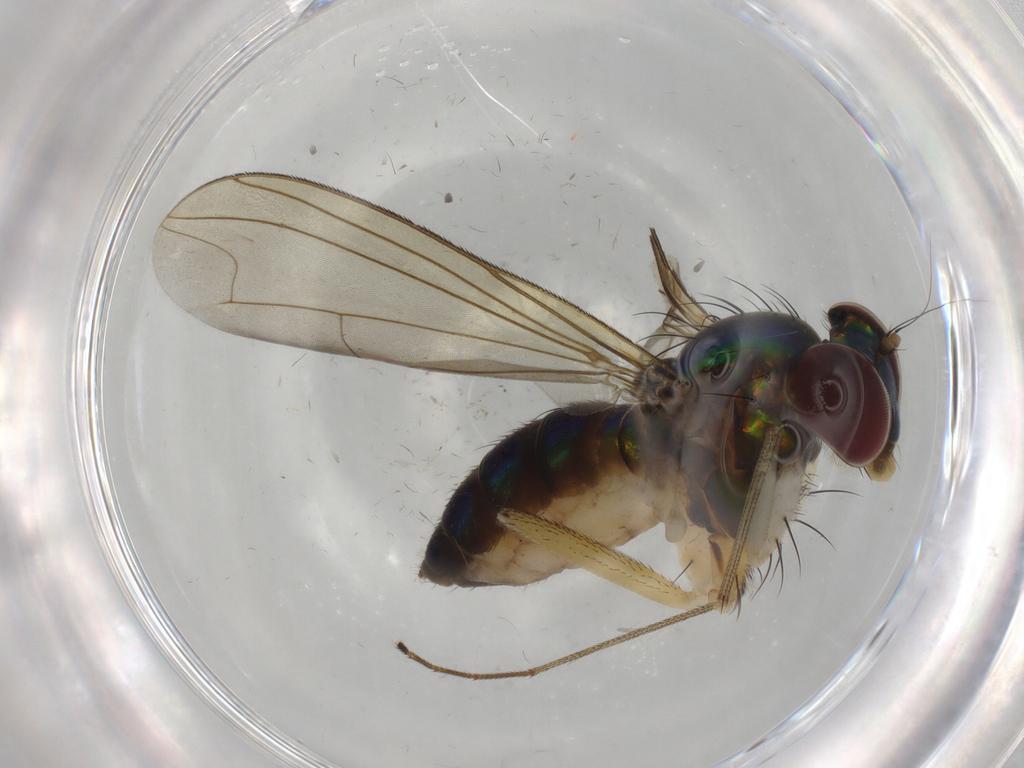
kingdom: Animalia
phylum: Arthropoda
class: Insecta
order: Diptera
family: Dolichopodidae
